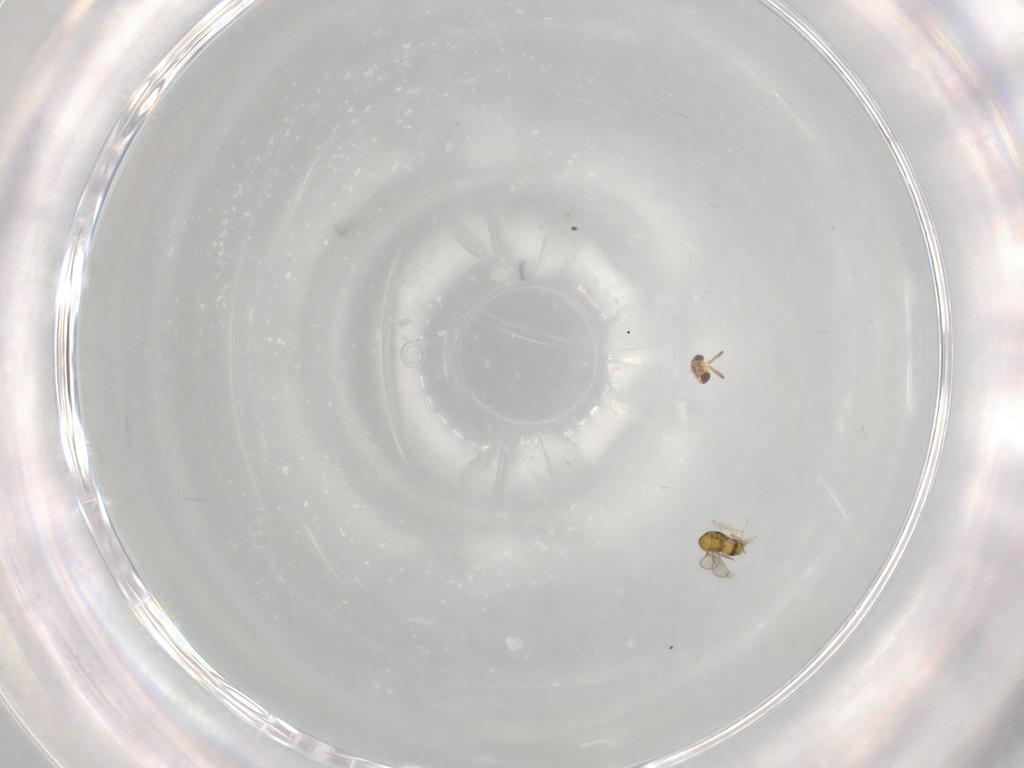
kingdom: Animalia
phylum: Arthropoda
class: Insecta
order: Hymenoptera
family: Aphelinidae
